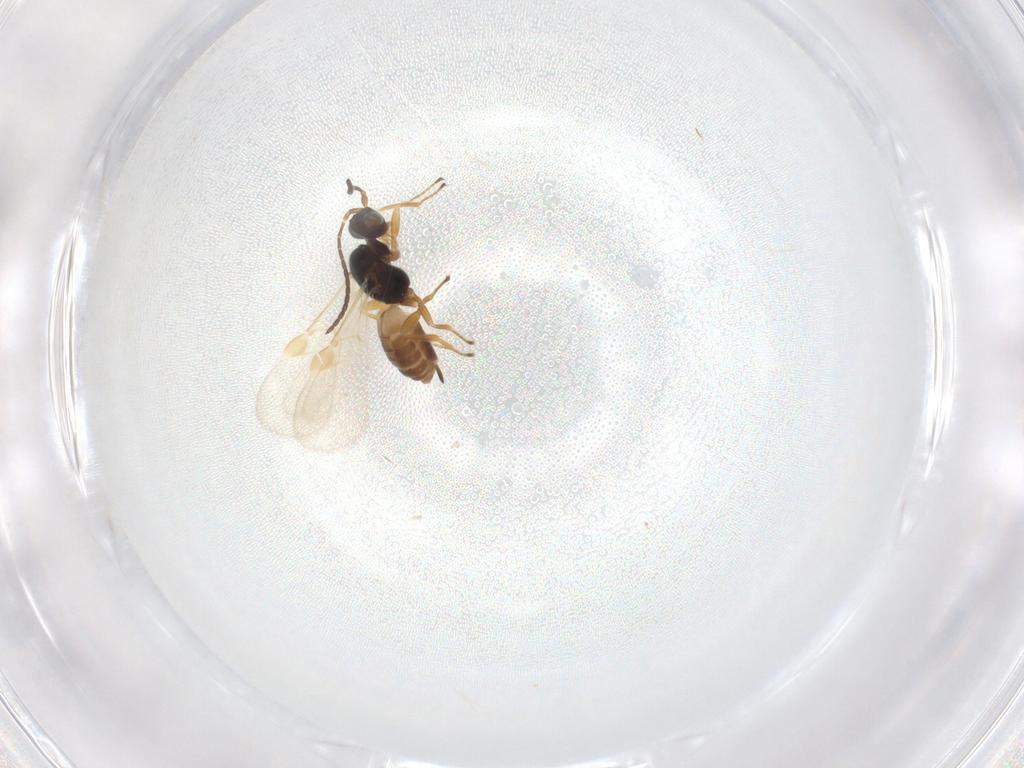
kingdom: Animalia
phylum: Arthropoda
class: Insecta
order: Hymenoptera
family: Braconidae
